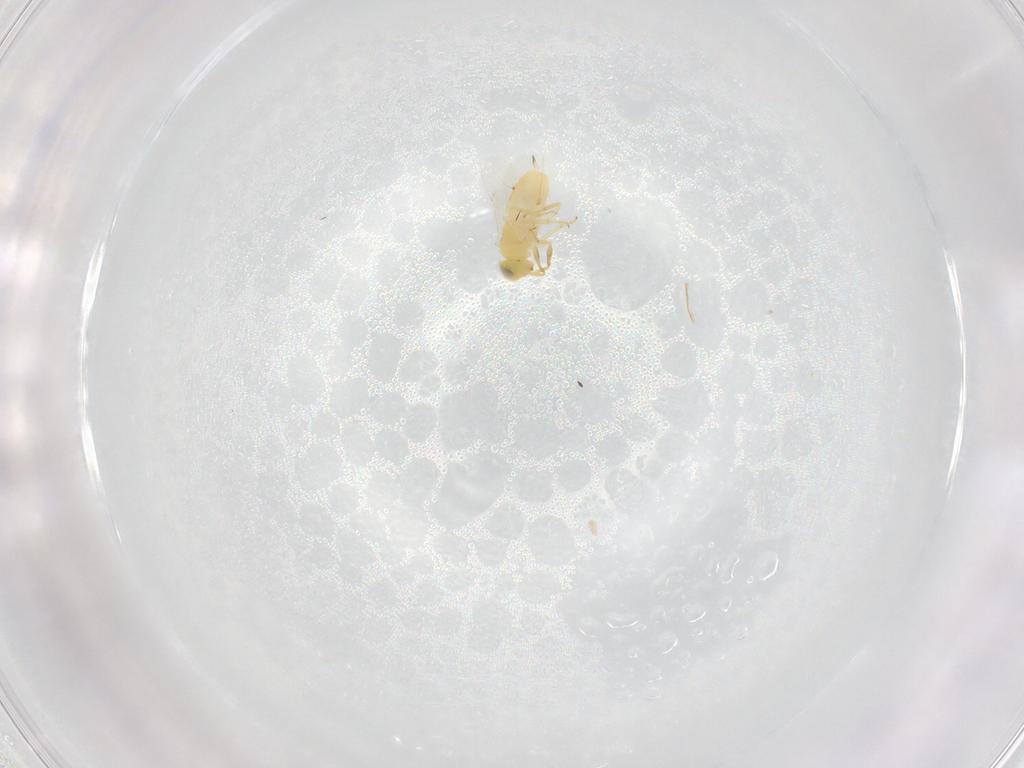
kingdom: Animalia
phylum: Arthropoda
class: Insecta
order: Hymenoptera
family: Encyrtidae
